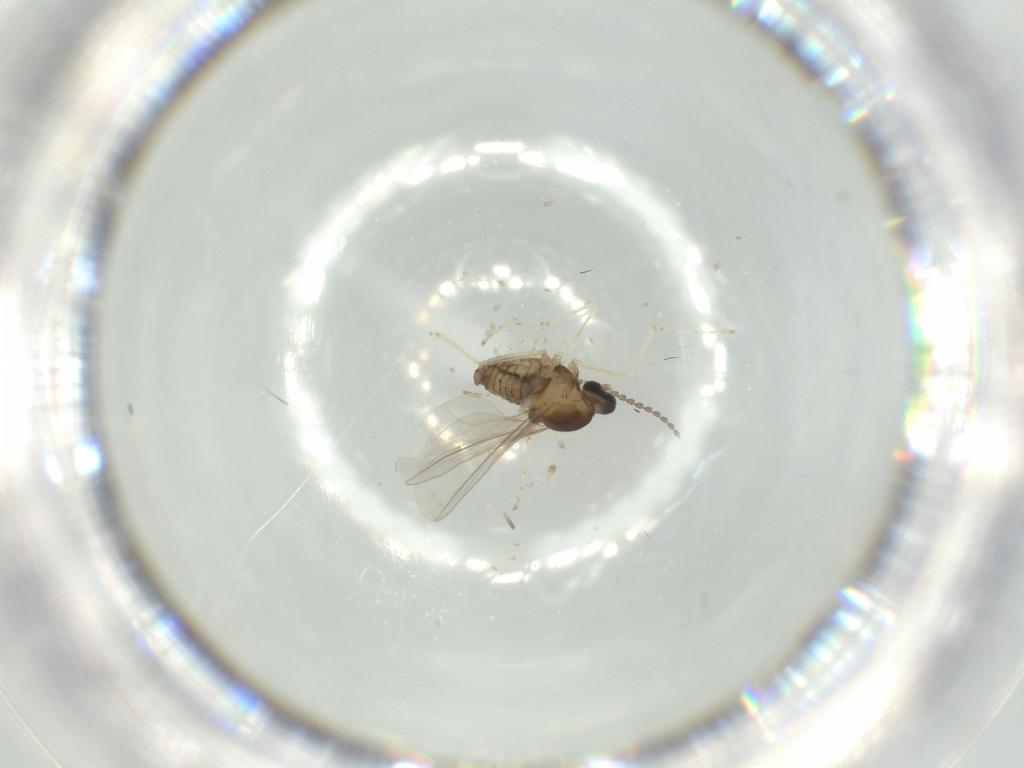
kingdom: Animalia
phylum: Arthropoda
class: Insecta
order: Diptera
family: Cecidomyiidae
